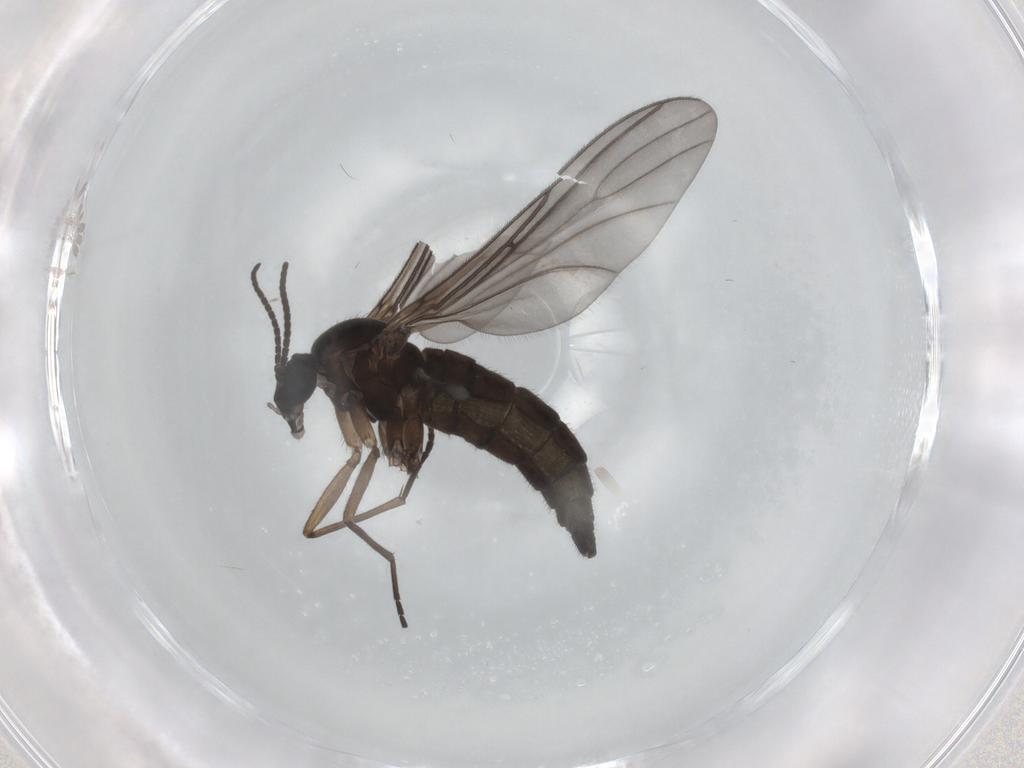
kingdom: Animalia
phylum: Arthropoda
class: Insecta
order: Diptera
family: Sciaridae
